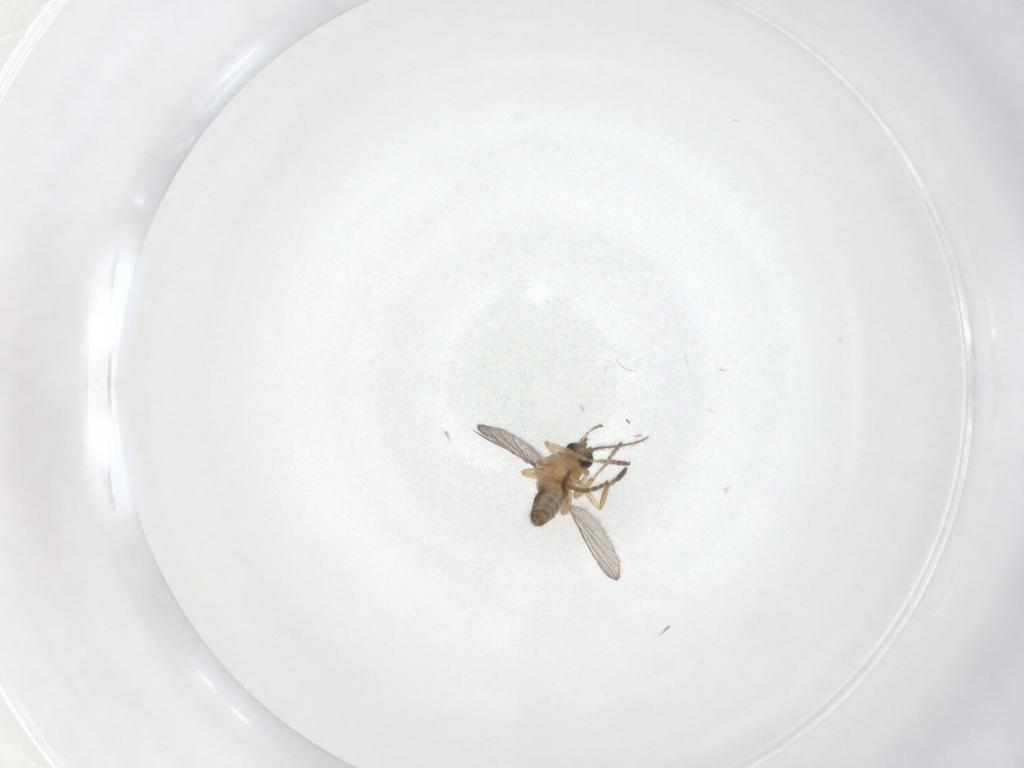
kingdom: Animalia
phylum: Arthropoda
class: Insecta
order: Diptera
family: Ceratopogonidae
